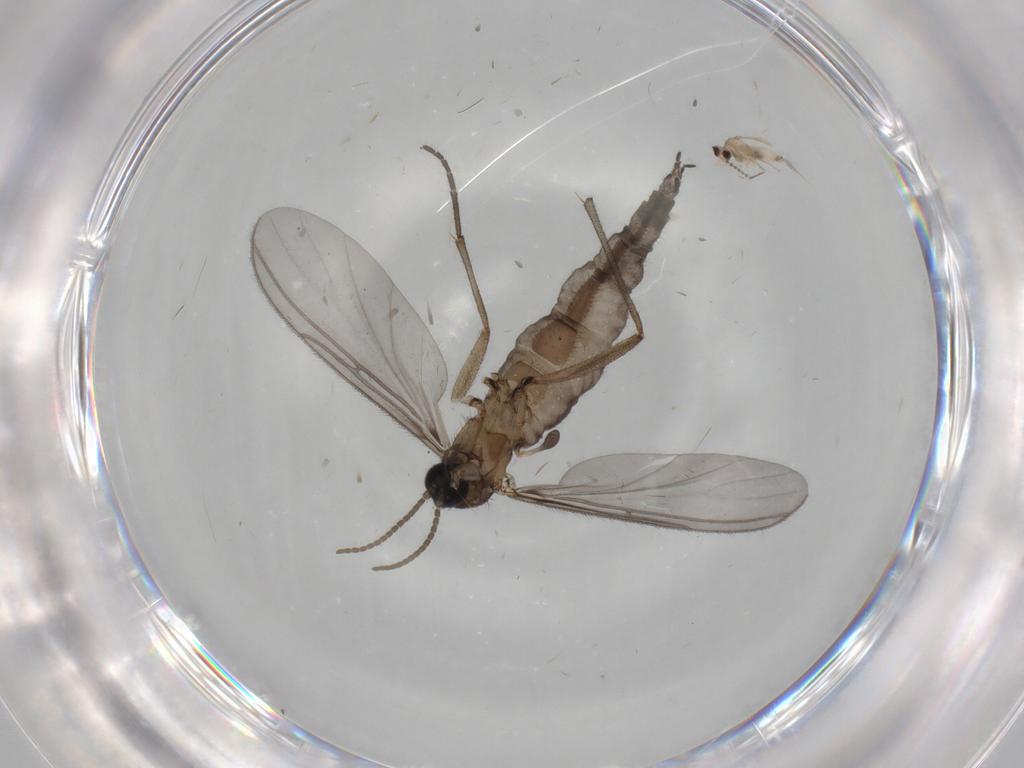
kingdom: Animalia
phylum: Arthropoda
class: Insecta
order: Diptera
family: Cecidomyiidae
